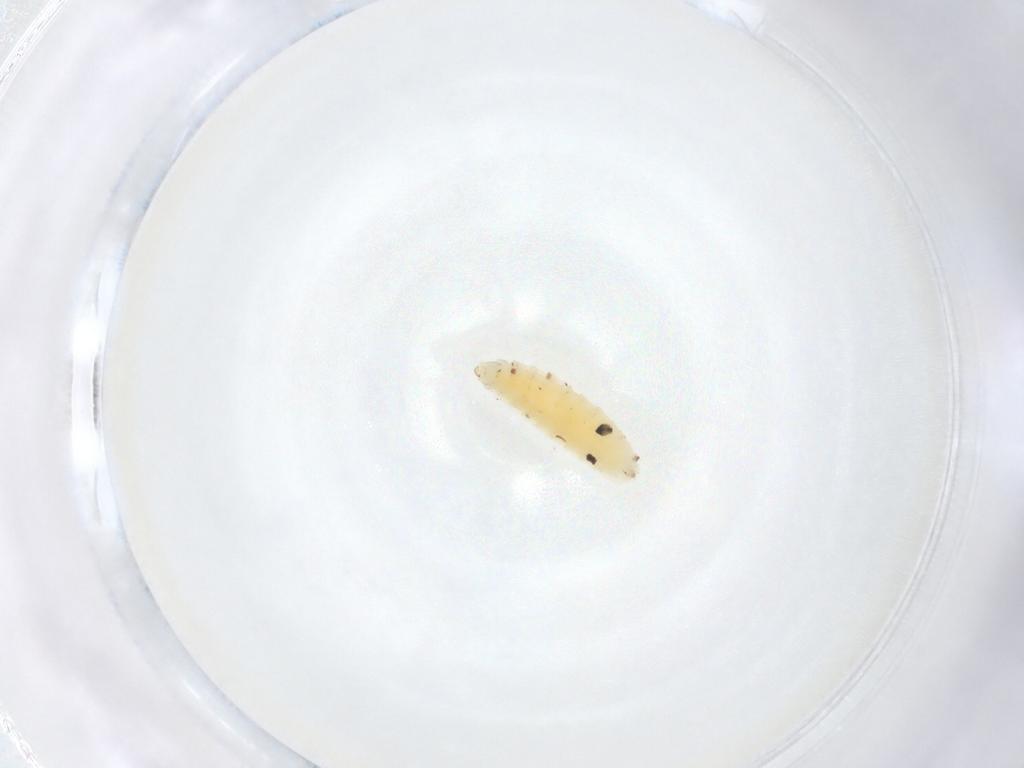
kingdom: Animalia
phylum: Arthropoda
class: Insecta
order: Diptera
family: Cecidomyiidae
